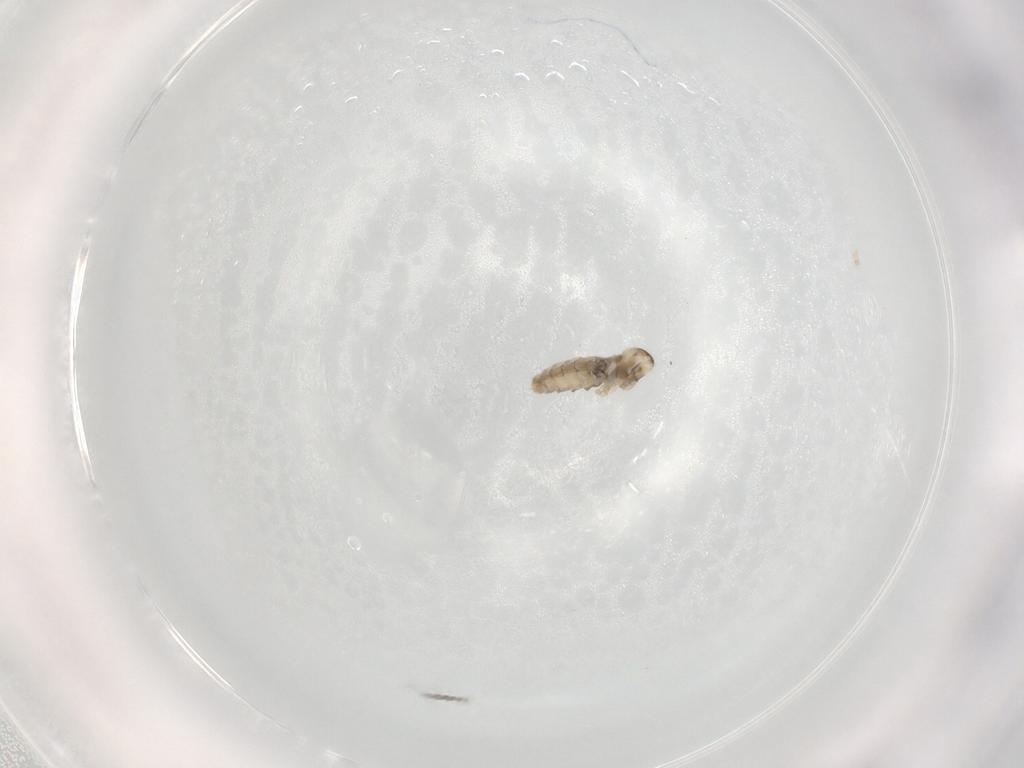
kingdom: Animalia
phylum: Arthropoda
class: Insecta
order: Diptera
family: Cecidomyiidae
